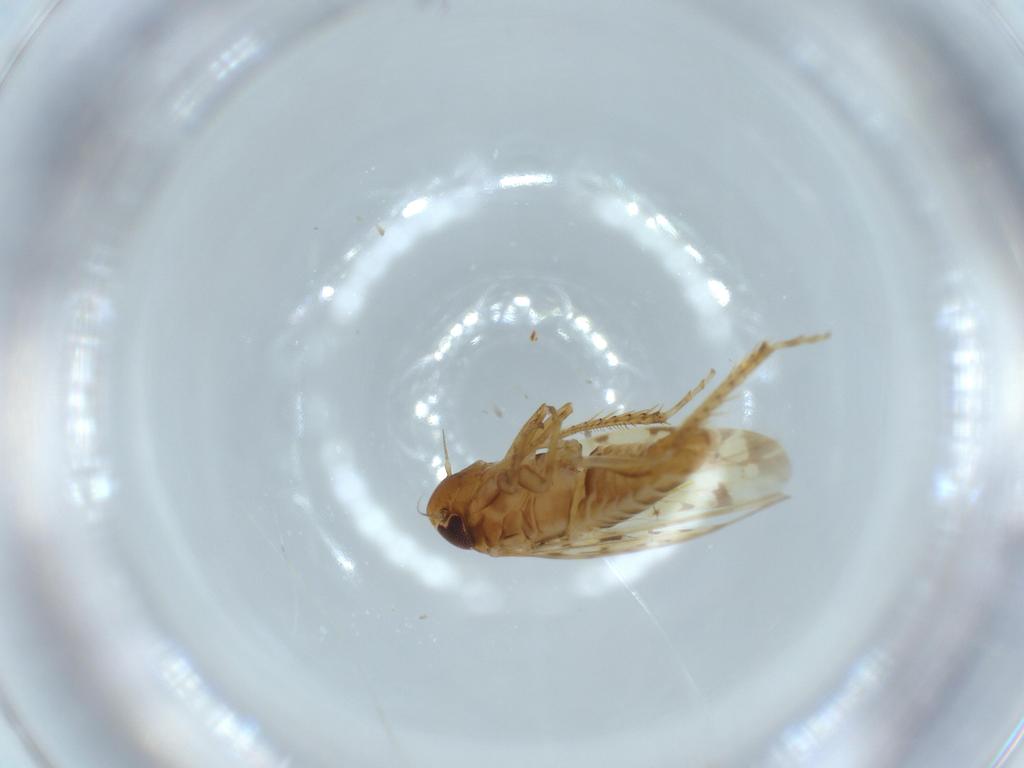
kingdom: Animalia
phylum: Arthropoda
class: Insecta
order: Hemiptera
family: Cicadellidae
